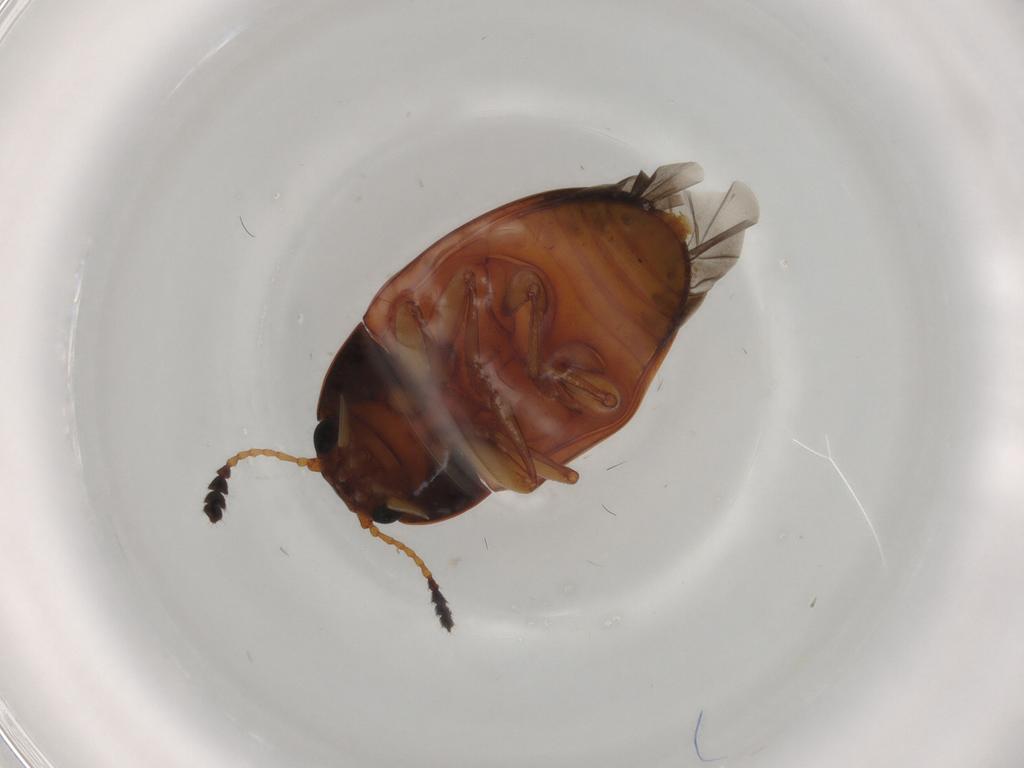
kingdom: Animalia
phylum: Arthropoda
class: Insecta
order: Coleoptera
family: Erotylidae
